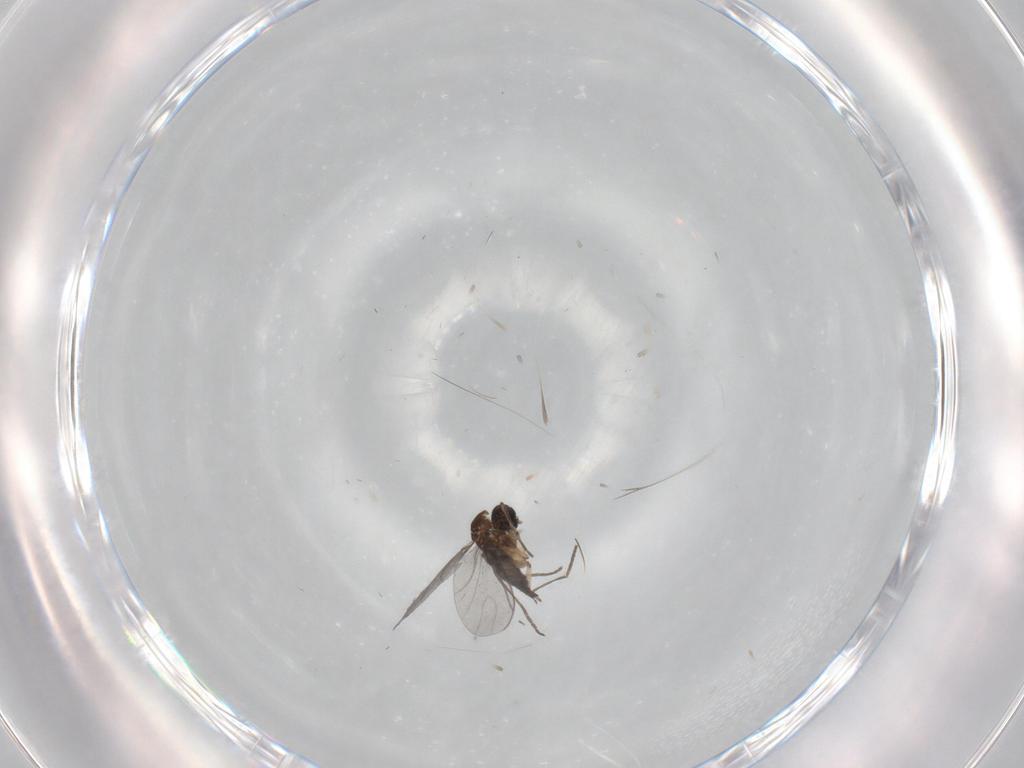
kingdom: Animalia
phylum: Arthropoda
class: Insecta
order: Diptera
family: Sciaridae
